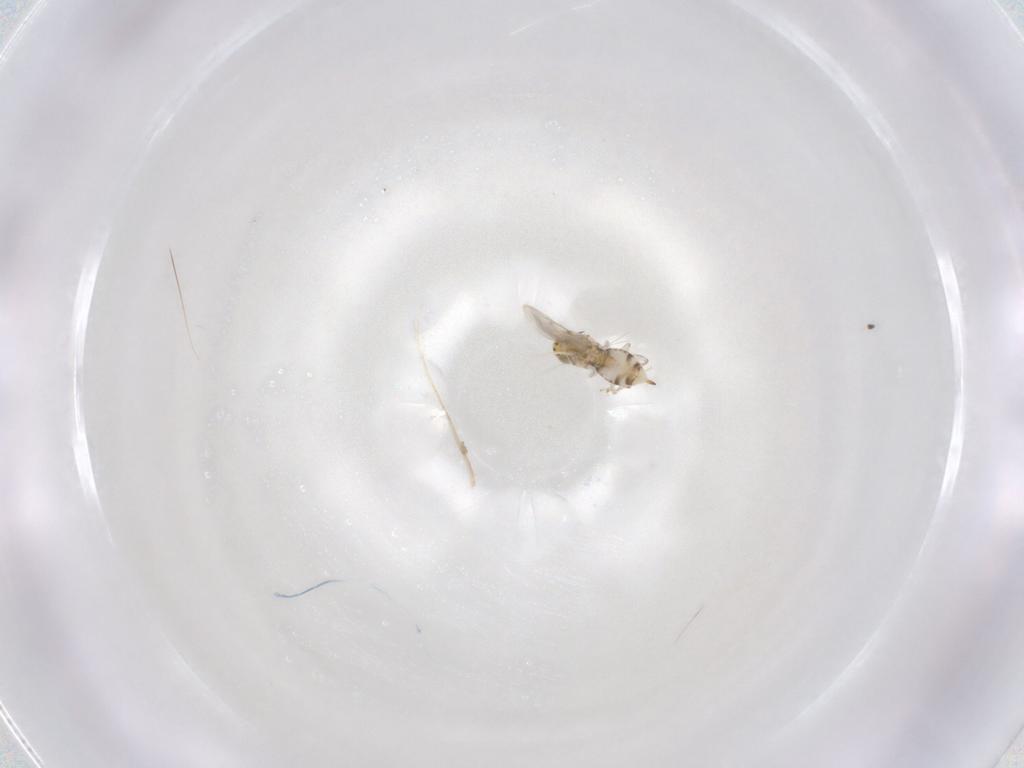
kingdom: Animalia
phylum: Arthropoda
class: Insecta
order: Hymenoptera
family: Aphelinidae
